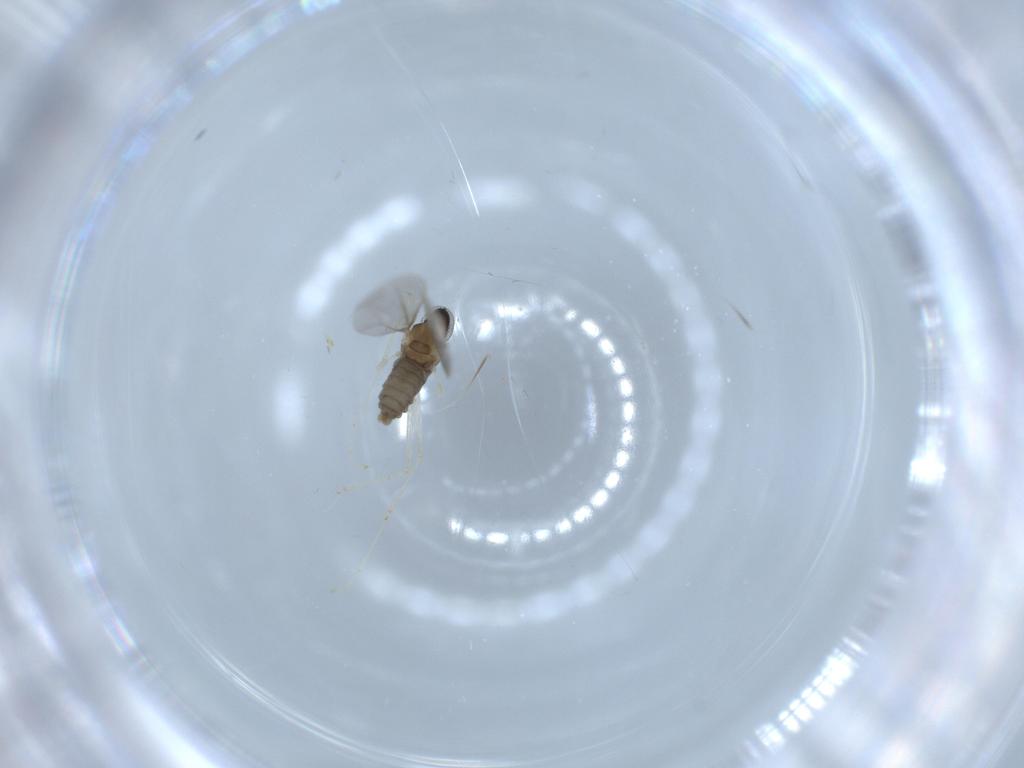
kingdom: Animalia
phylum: Arthropoda
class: Insecta
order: Diptera
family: Cecidomyiidae
